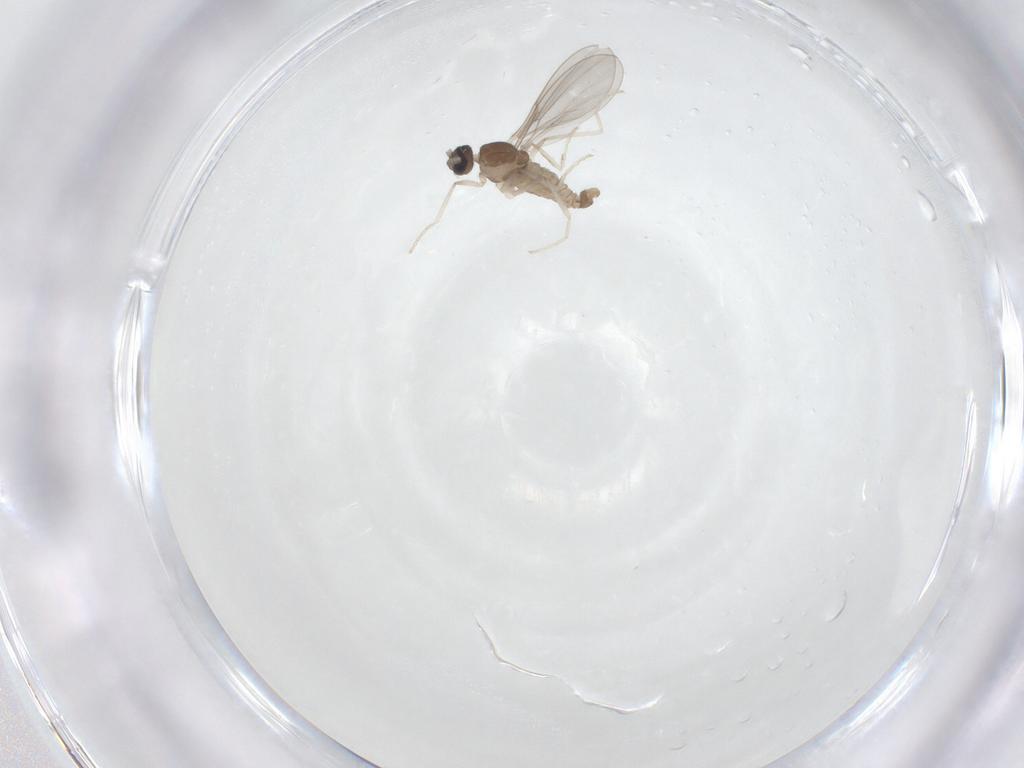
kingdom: Animalia
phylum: Arthropoda
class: Insecta
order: Diptera
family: Cecidomyiidae
